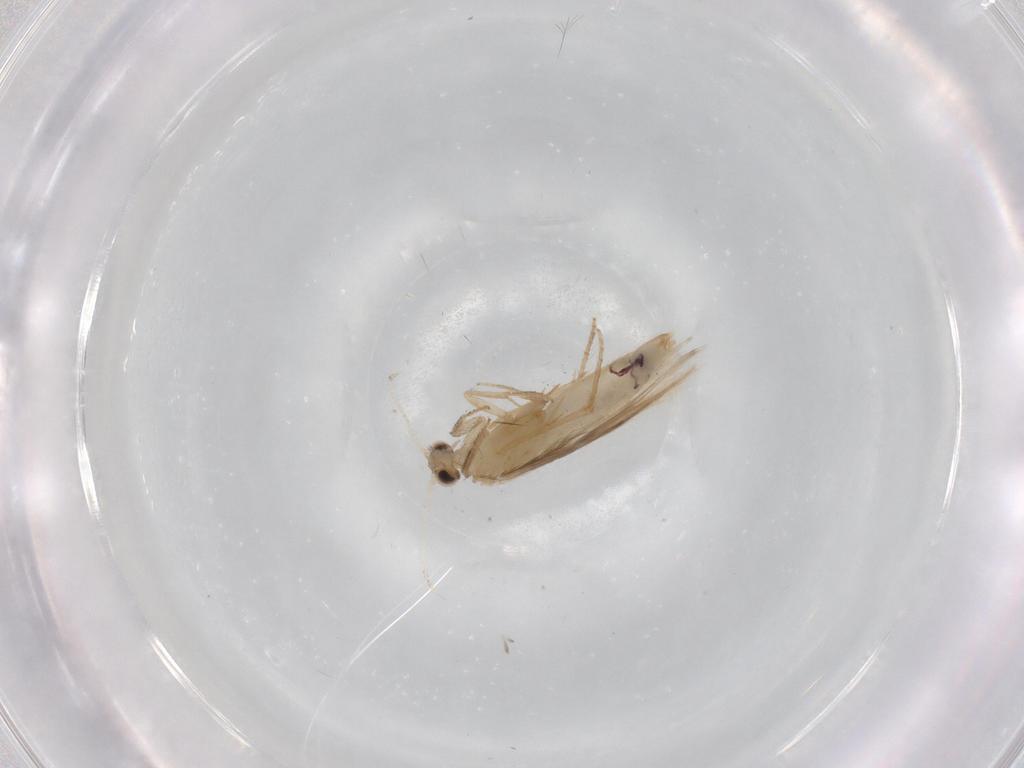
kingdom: Animalia
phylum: Arthropoda
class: Insecta
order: Trichoptera
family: Hydroptilidae
